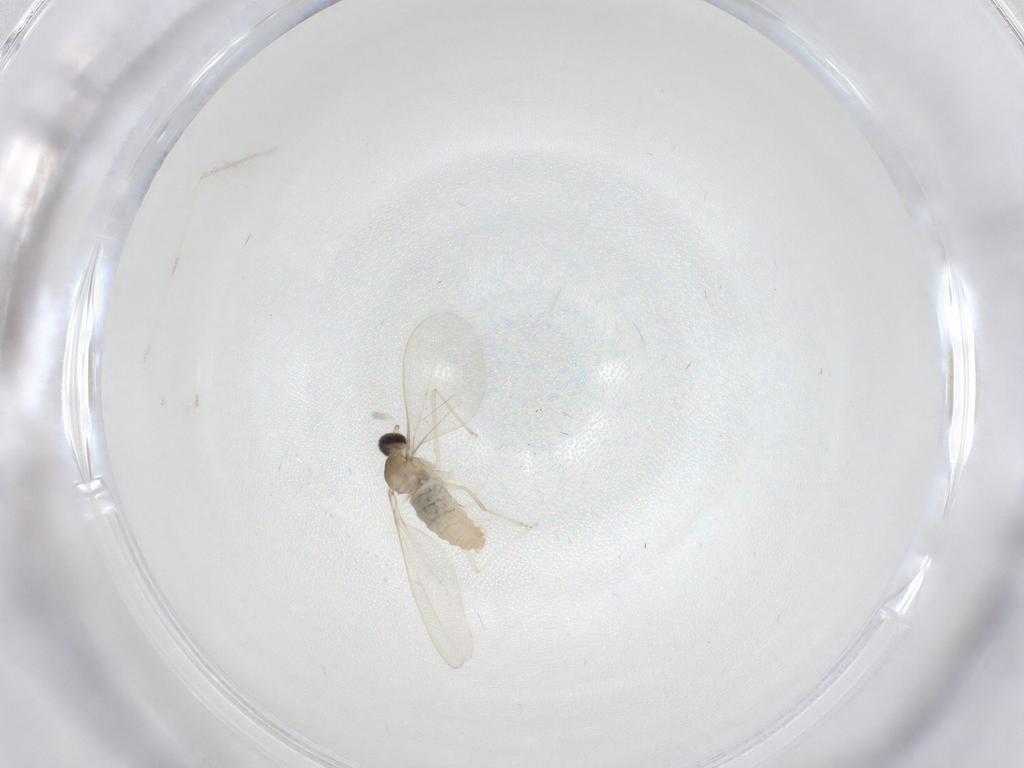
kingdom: Animalia
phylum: Arthropoda
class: Insecta
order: Diptera
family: Cecidomyiidae
